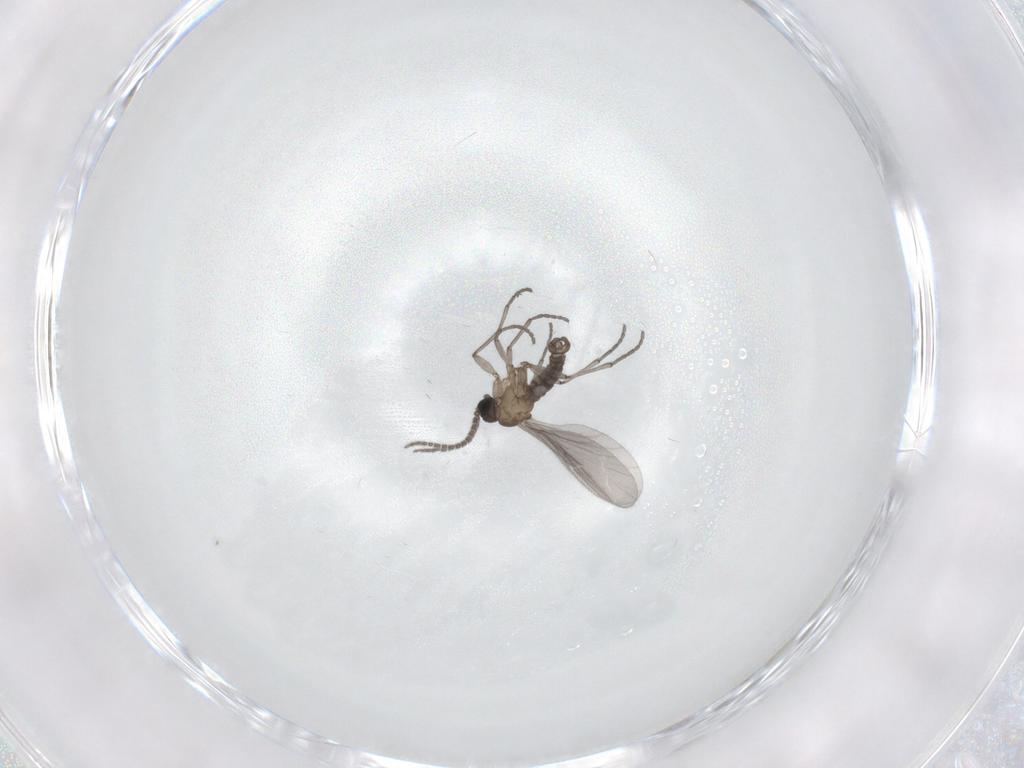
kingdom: Animalia
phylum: Arthropoda
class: Insecta
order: Diptera
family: Sciaridae
